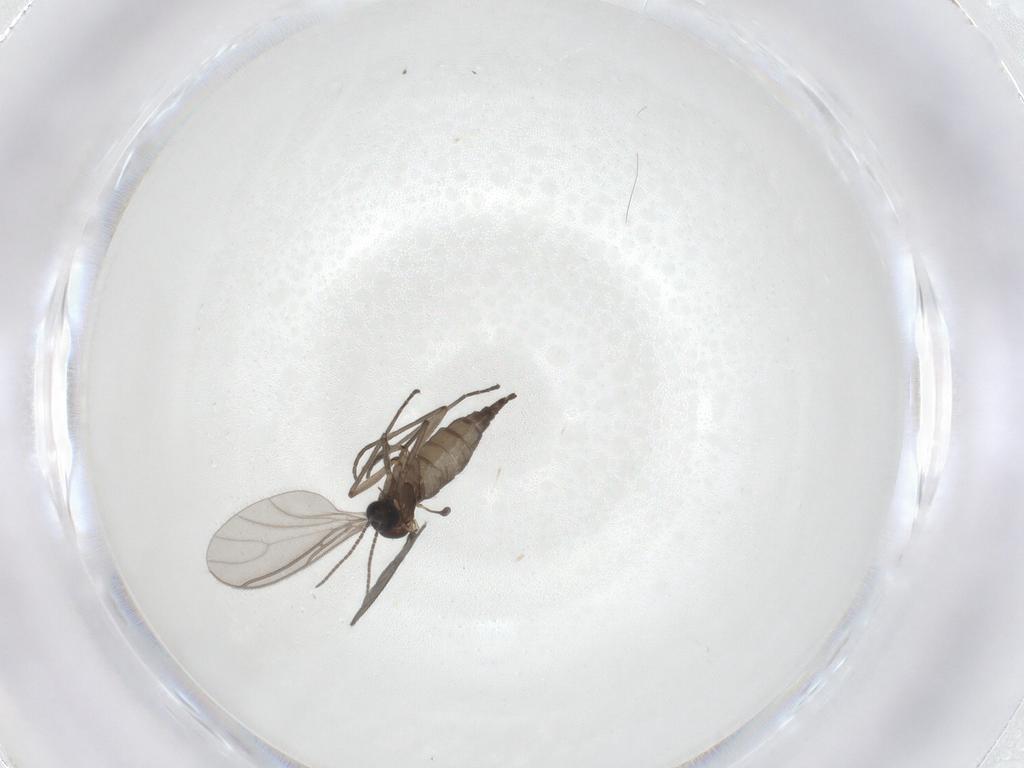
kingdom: Animalia
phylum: Arthropoda
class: Insecta
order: Diptera
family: Sciaridae
